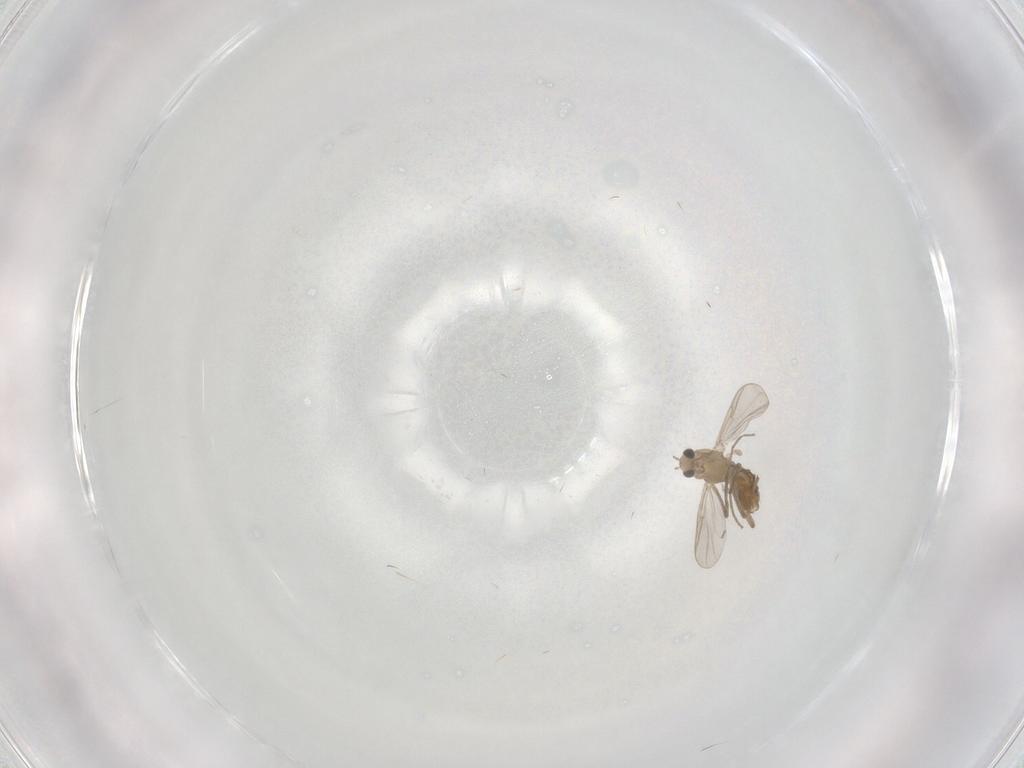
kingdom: Animalia
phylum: Arthropoda
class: Insecta
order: Diptera
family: Cecidomyiidae
